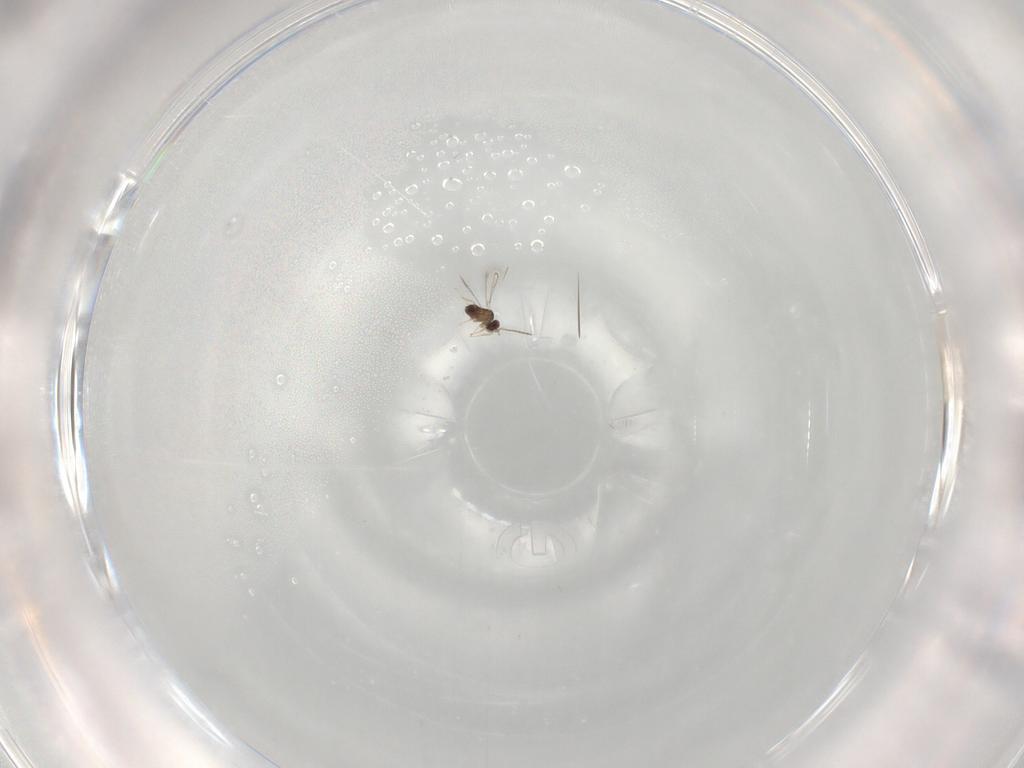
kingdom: Animalia
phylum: Arthropoda
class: Insecta
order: Hymenoptera
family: Mymaridae
